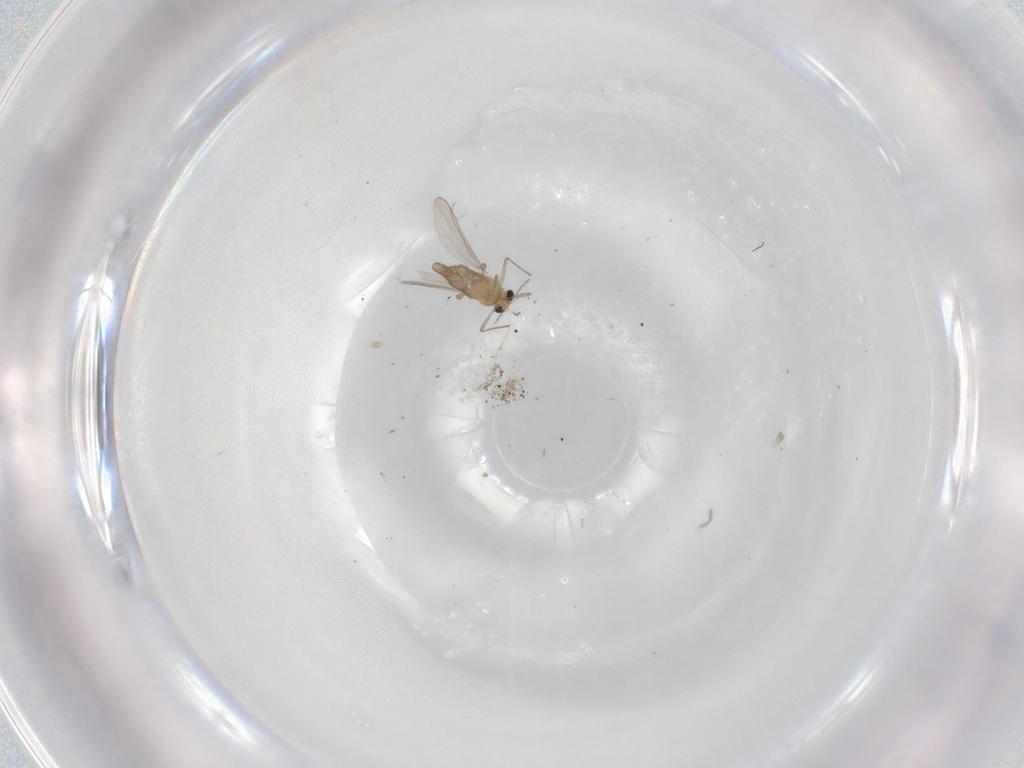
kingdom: Animalia
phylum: Arthropoda
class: Insecta
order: Diptera
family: Chironomidae
